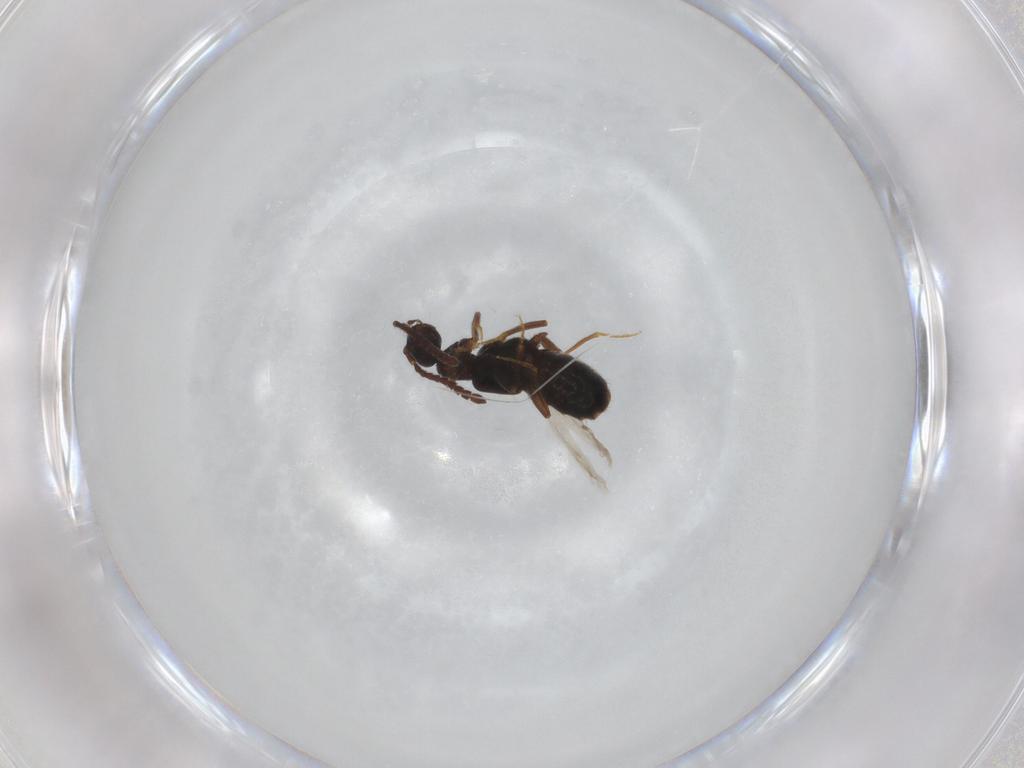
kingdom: Animalia
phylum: Arthropoda
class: Insecta
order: Coleoptera
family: Staphylinidae
